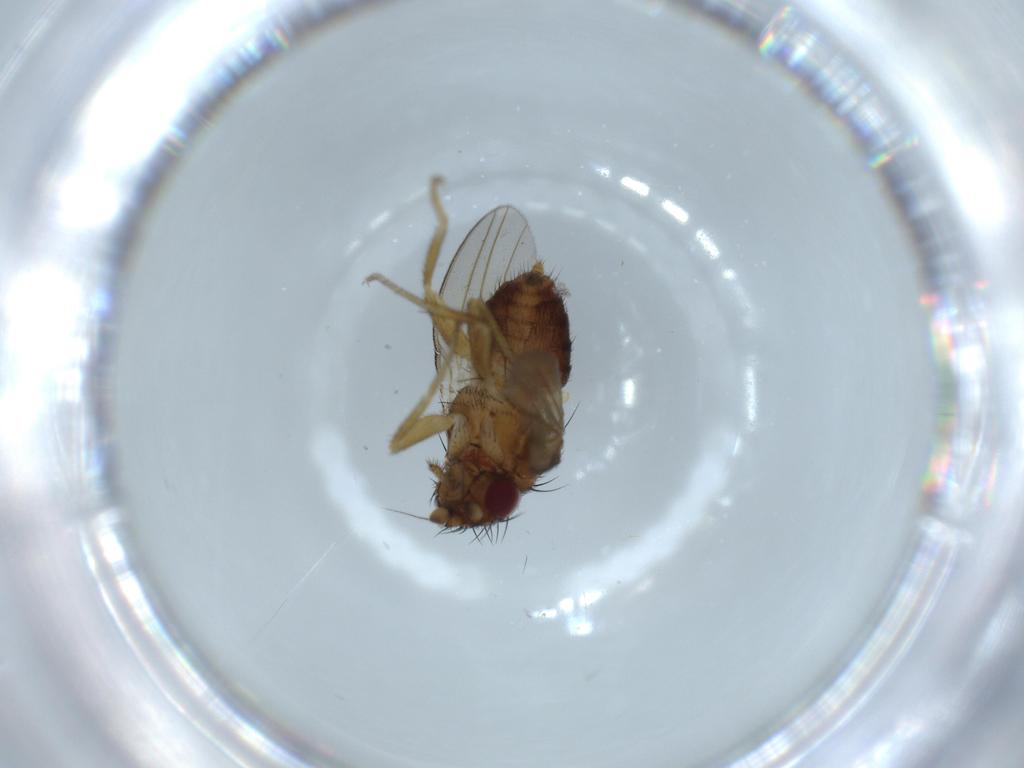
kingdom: Animalia
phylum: Arthropoda
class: Insecta
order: Diptera
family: Milichiidae
